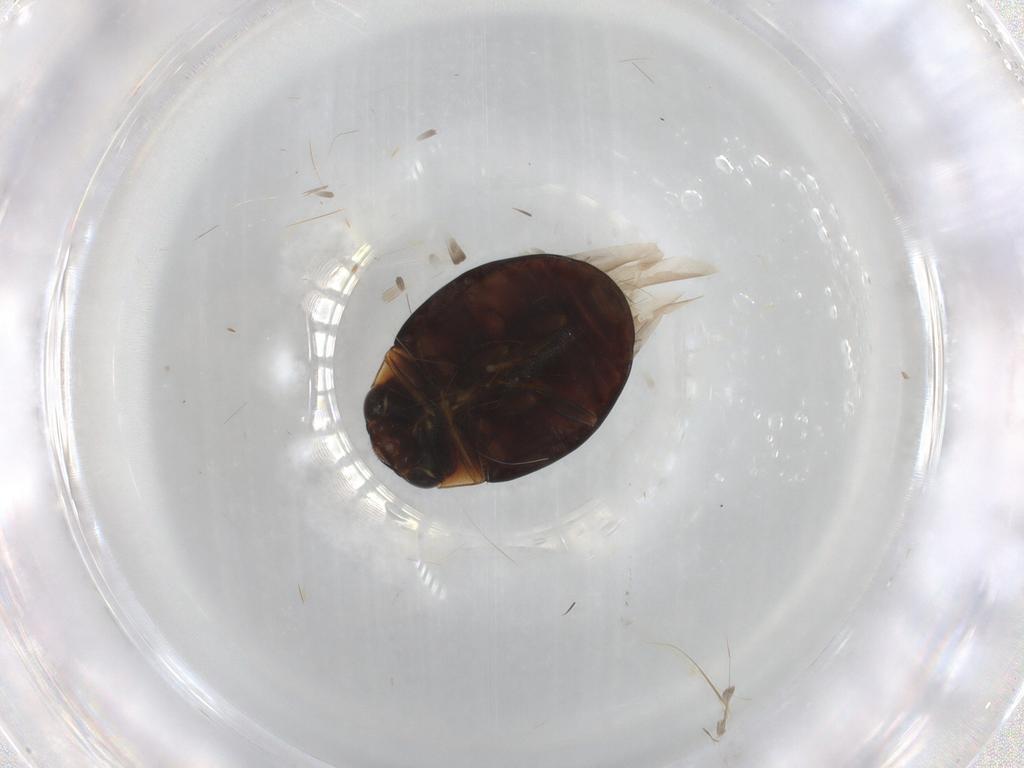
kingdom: Animalia
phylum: Arthropoda
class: Insecta
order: Coleoptera
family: Coccinellidae
